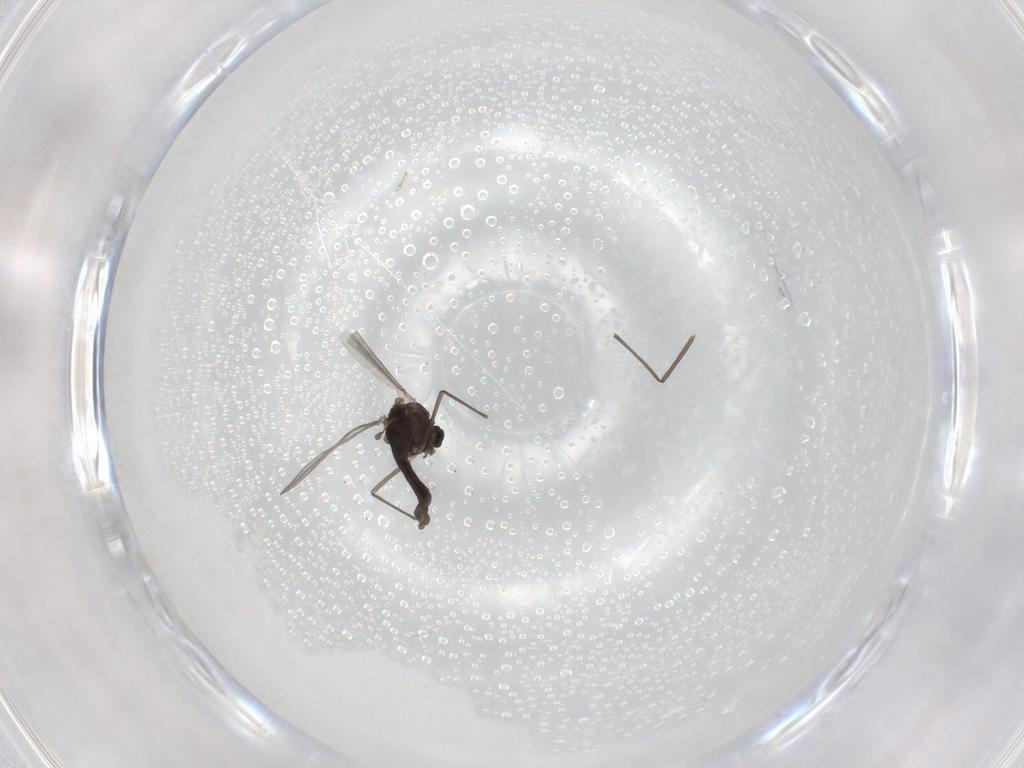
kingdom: Animalia
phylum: Arthropoda
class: Insecta
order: Diptera
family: Chironomidae
